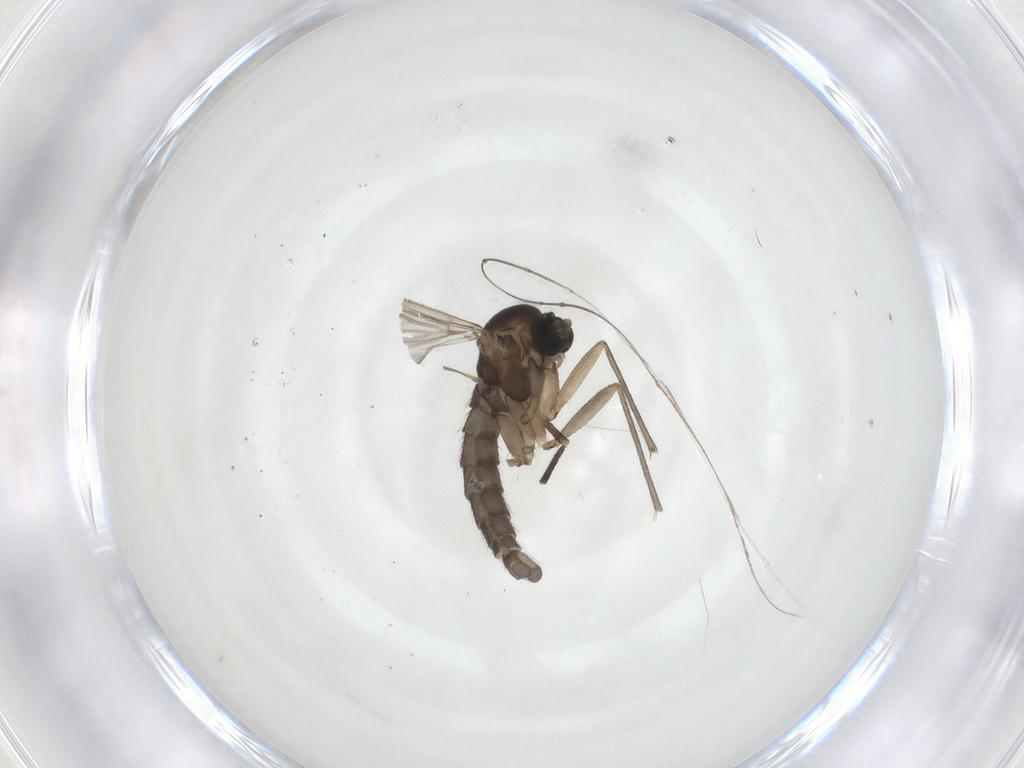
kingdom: Animalia
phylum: Arthropoda
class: Insecta
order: Diptera
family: Sciaridae
